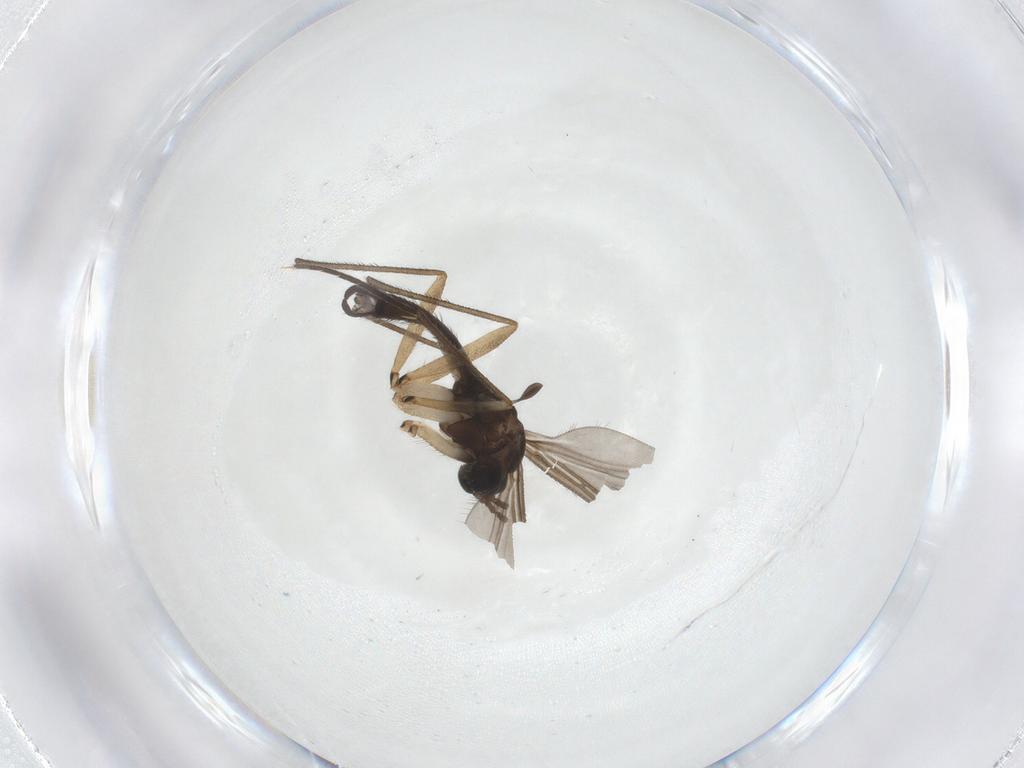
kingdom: Animalia
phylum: Arthropoda
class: Insecta
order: Diptera
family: Sciaridae
